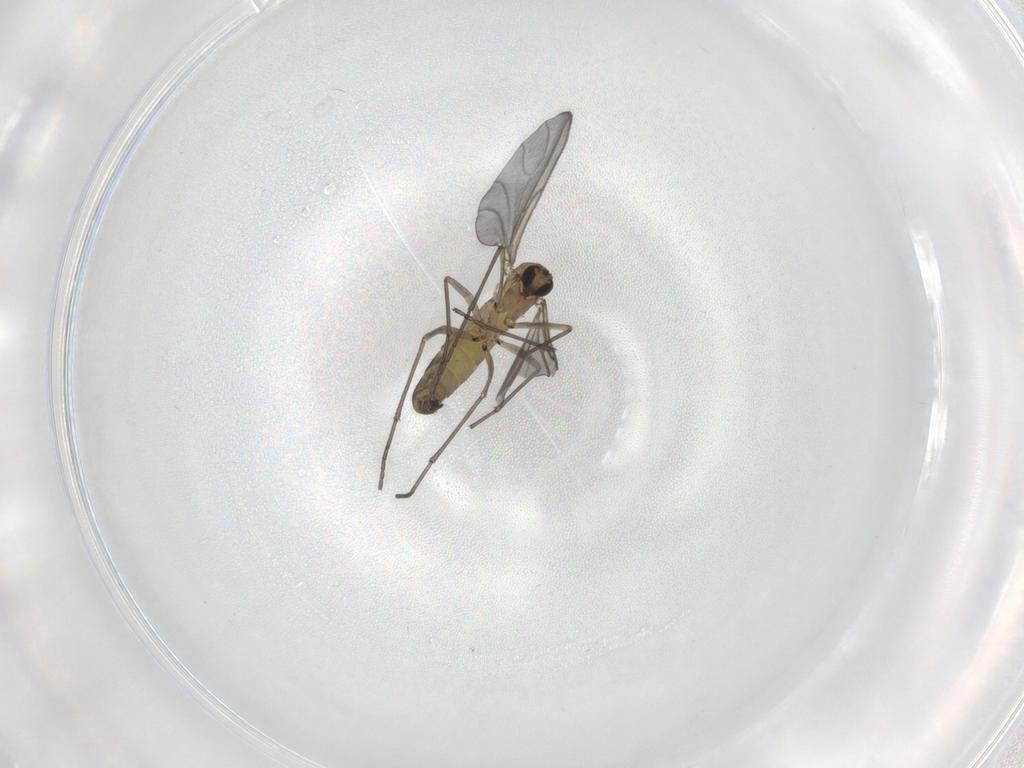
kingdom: Animalia
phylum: Arthropoda
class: Insecta
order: Diptera
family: Sciaridae
